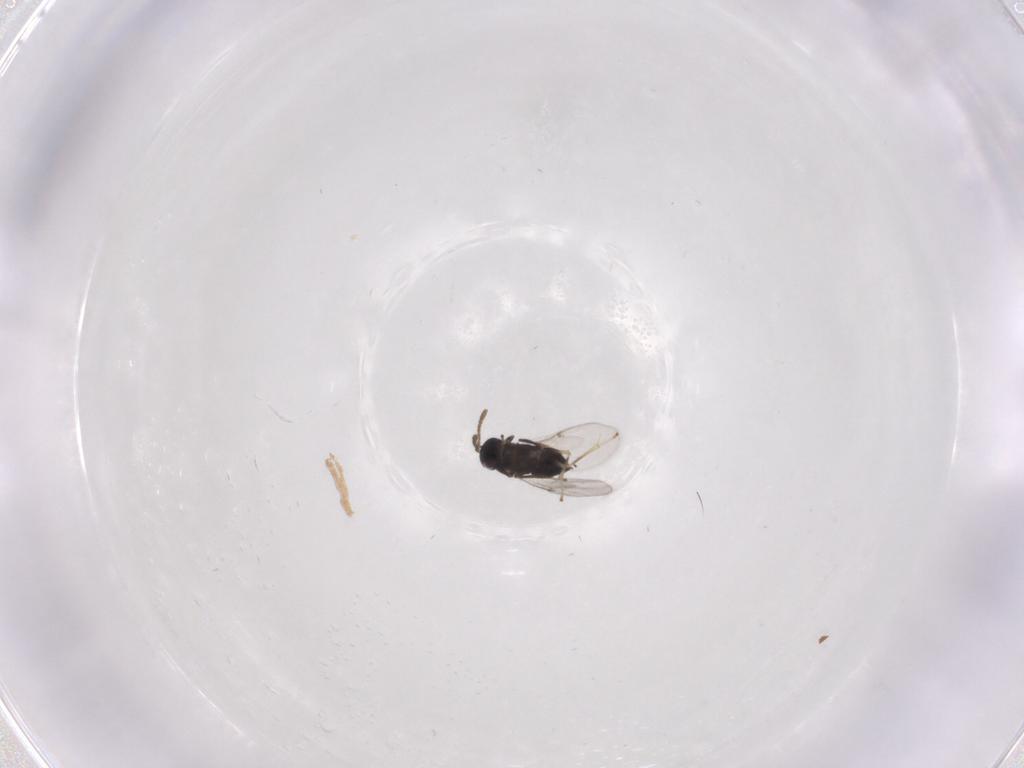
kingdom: Animalia
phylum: Arthropoda
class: Insecta
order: Hymenoptera
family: Encyrtidae
